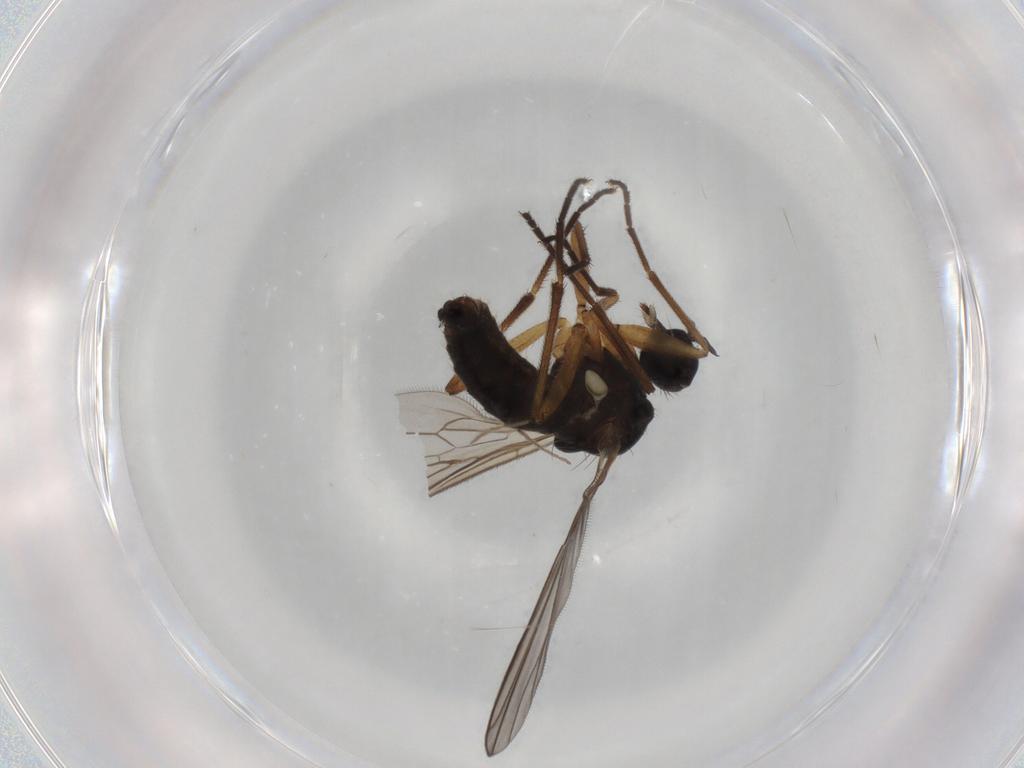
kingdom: Animalia
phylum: Arthropoda
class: Insecta
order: Diptera
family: Empididae
